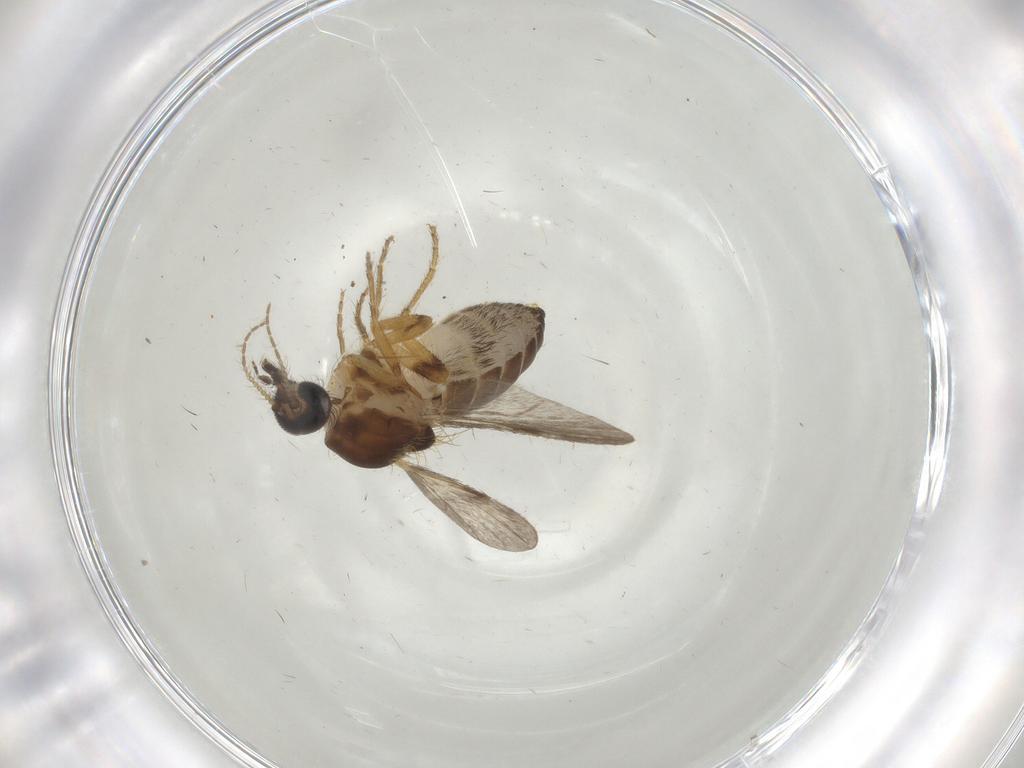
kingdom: Animalia
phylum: Arthropoda
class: Insecta
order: Diptera
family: Ceratopogonidae
